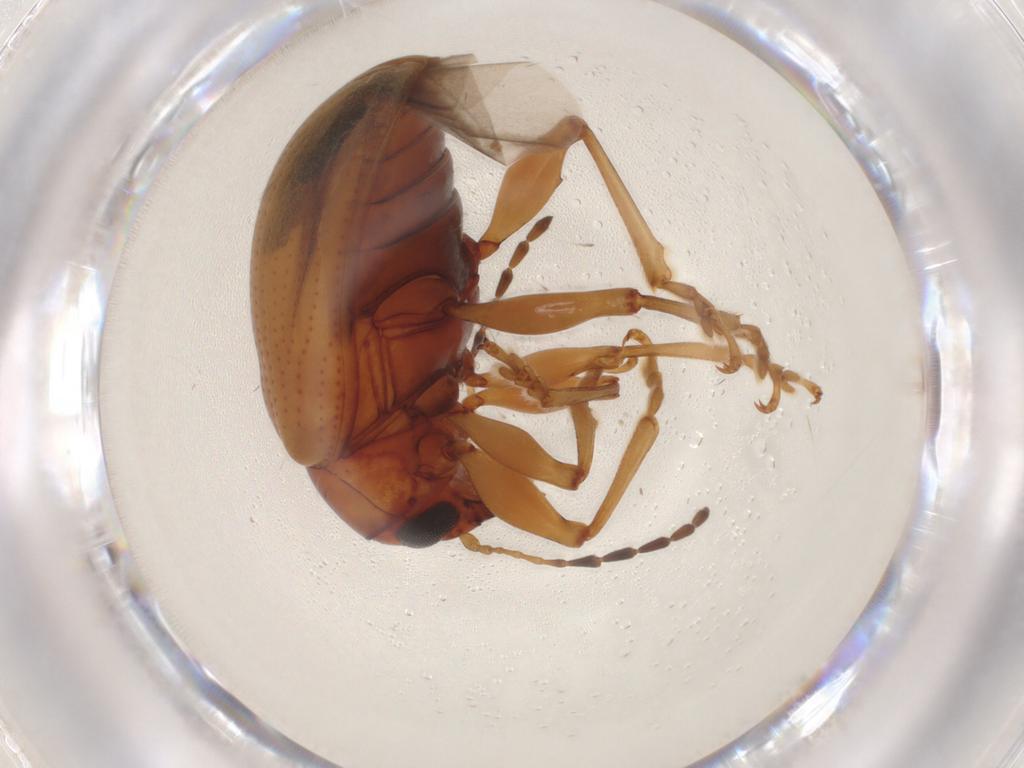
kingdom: Animalia
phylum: Arthropoda
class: Insecta
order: Coleoptera
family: Chrysomelidae
